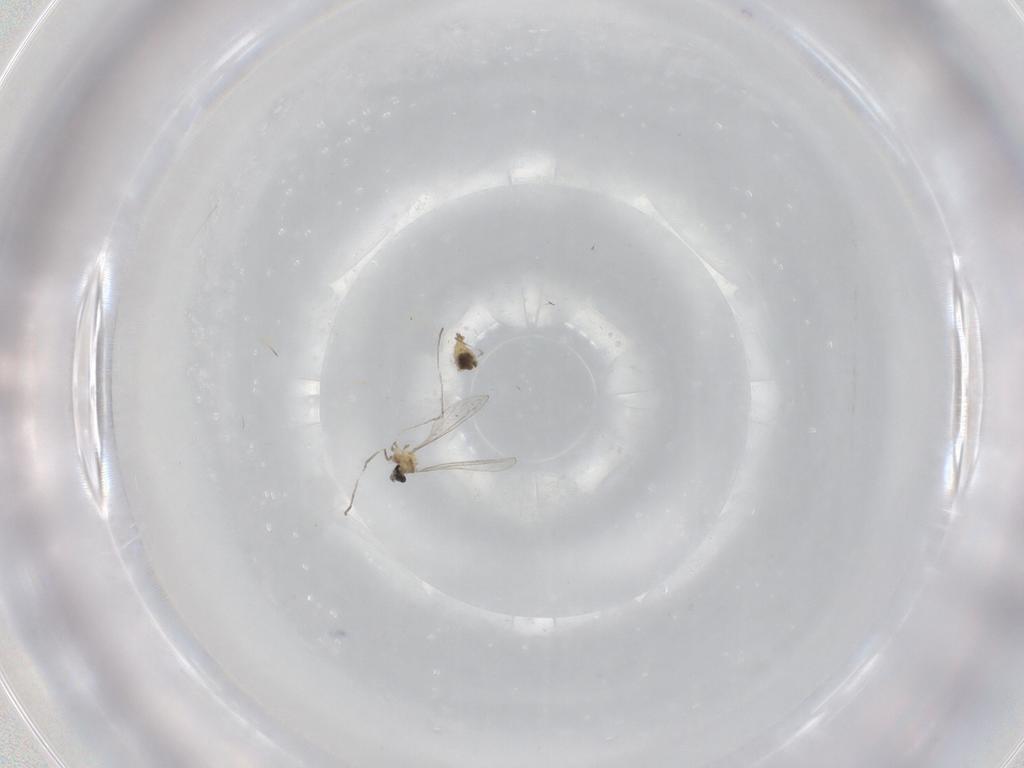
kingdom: Animalia
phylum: Arthropoda
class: Insecta
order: Diptera
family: Cecidomyiidae
